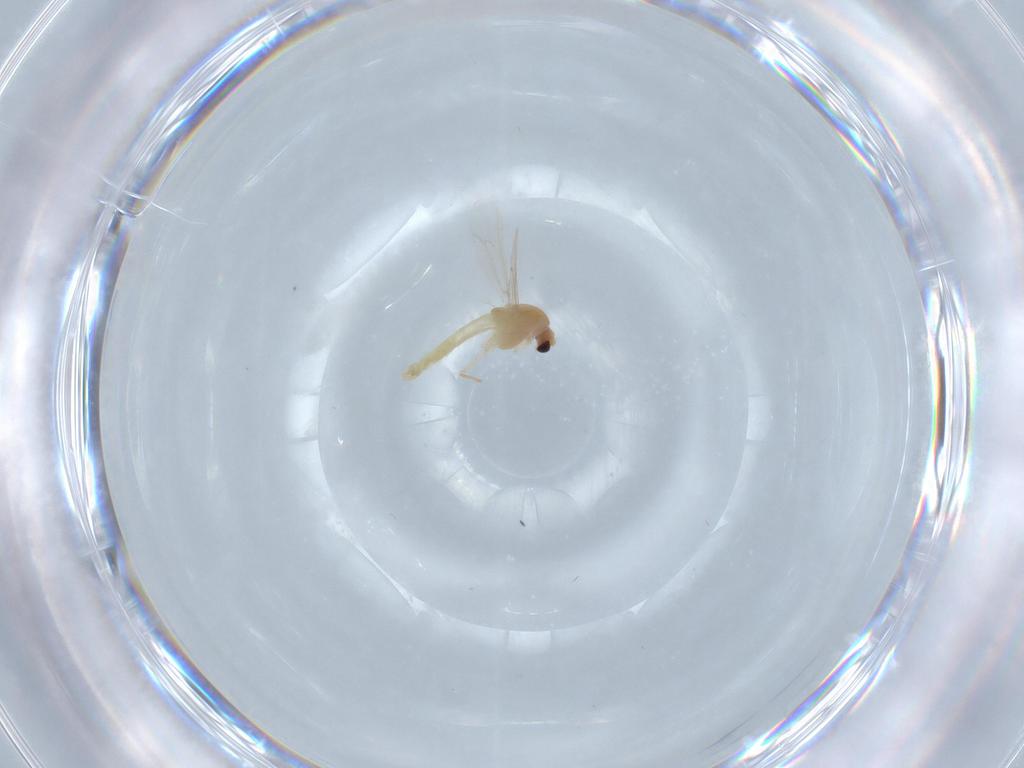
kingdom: Animalia
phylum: Arthropoda
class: Insecta
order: Diptera
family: Chironomidae
